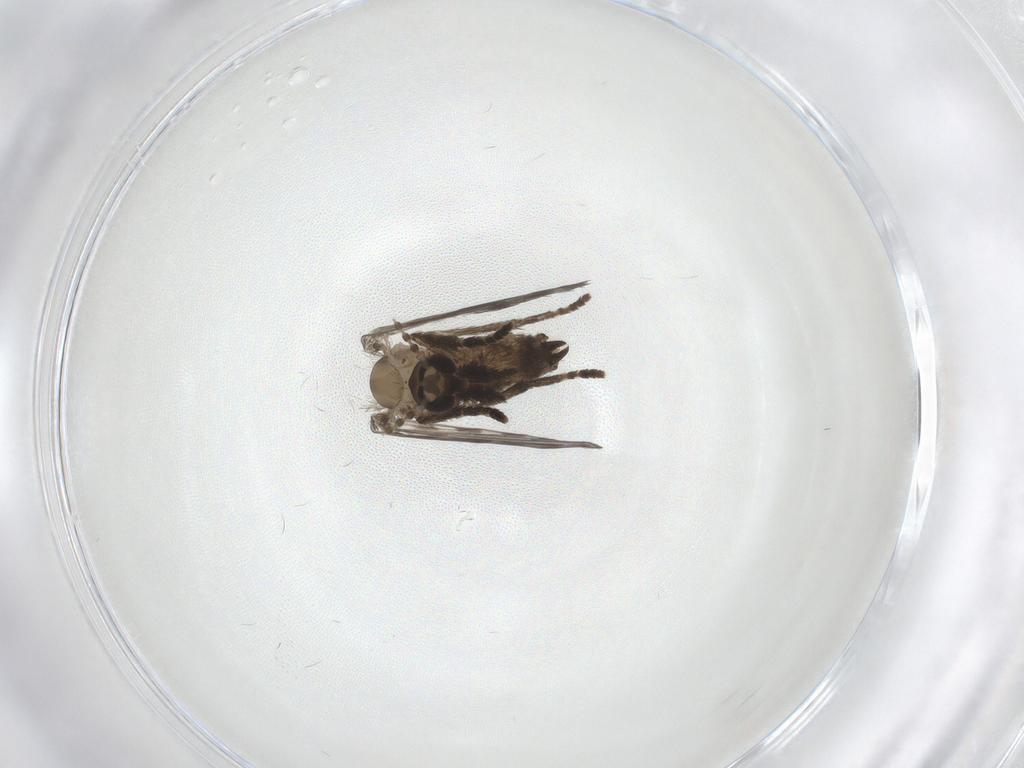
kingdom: Animalia
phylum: Arthropoda
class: Insecta
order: Diptera
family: Psychodidae
